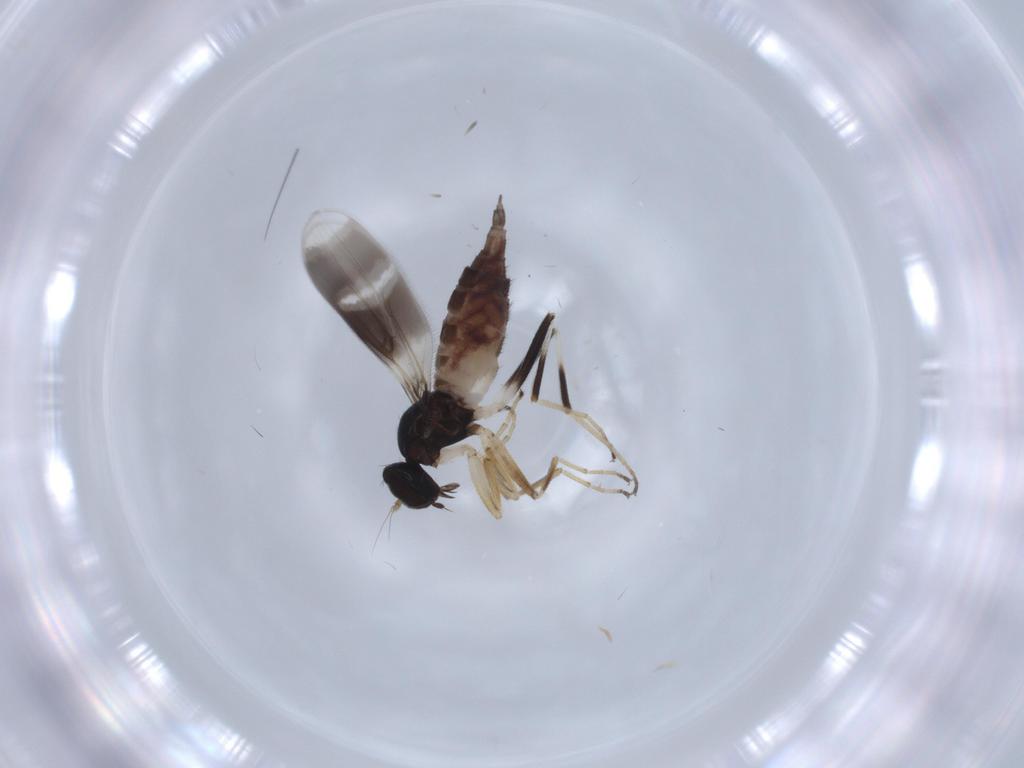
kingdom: Animalia
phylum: Arthropoda
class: Insecta
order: Diptera
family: Hybotidae
